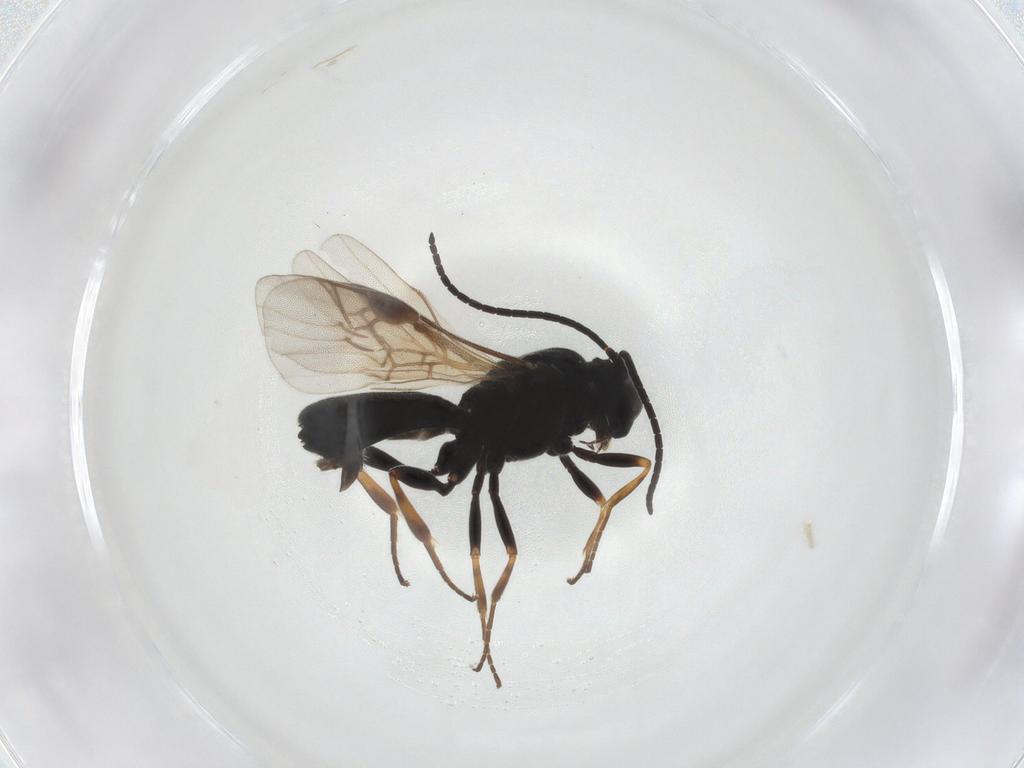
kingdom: Animalia
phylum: Arthropoda
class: Insecta
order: Hymenoptera
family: Braconidae
